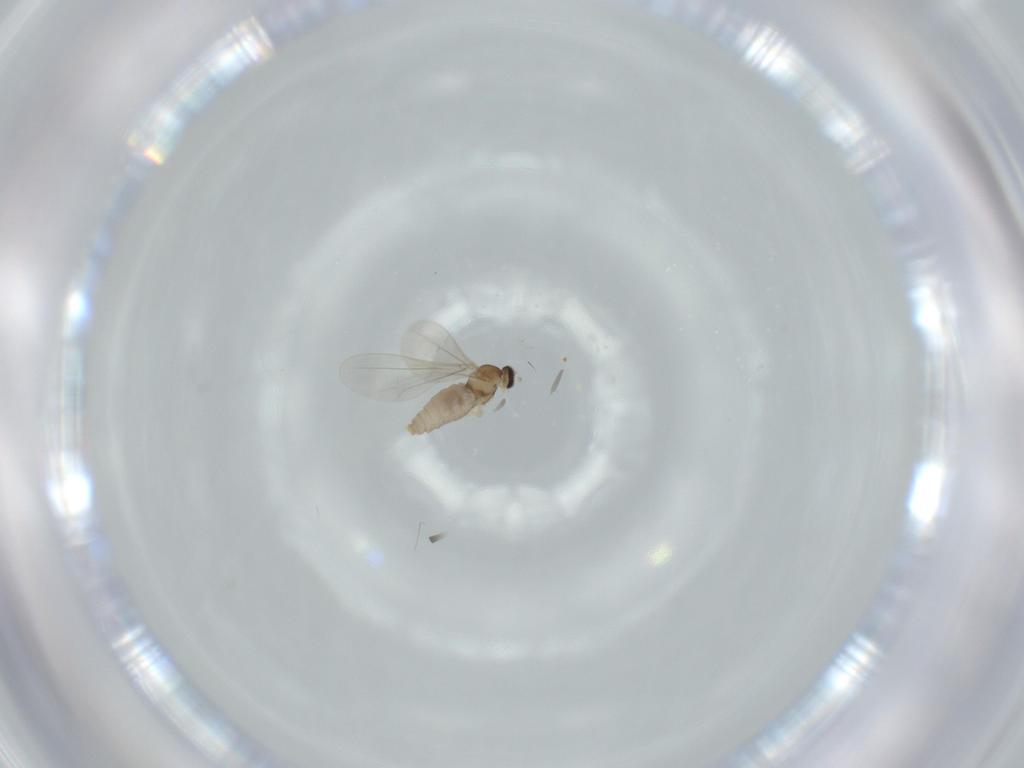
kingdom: Animalia
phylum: Arthropoda
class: Insecta
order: Diptera
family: Cecidomyiidae
